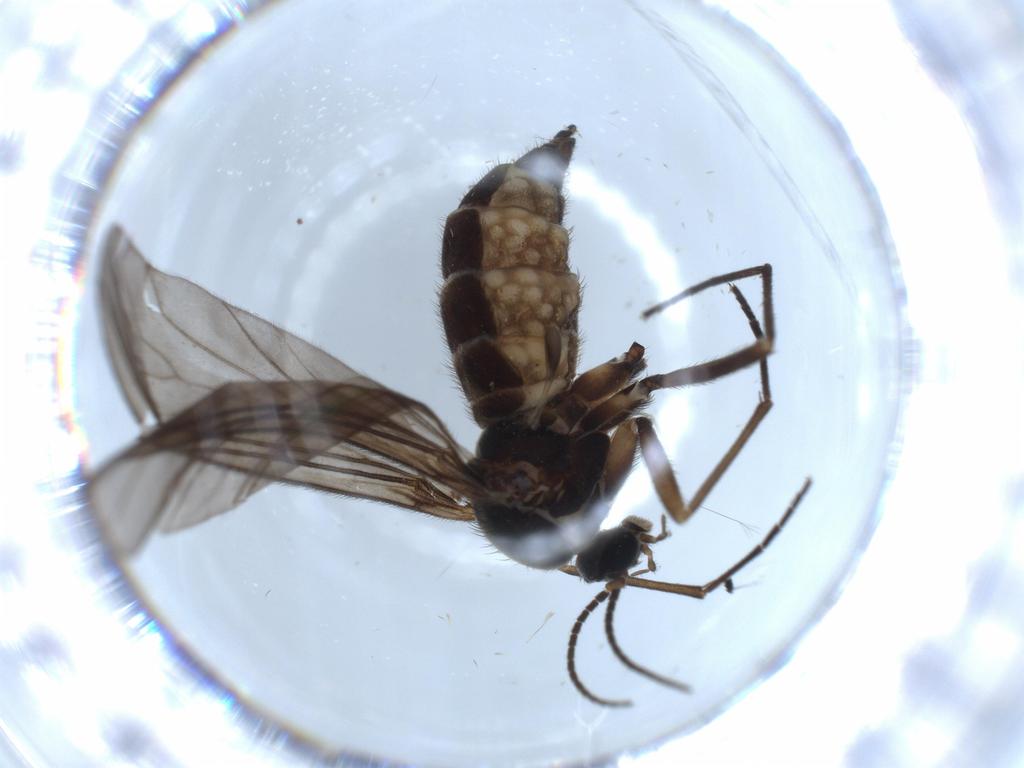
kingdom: Animalia
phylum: Arthropoda
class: Insecta
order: Diptera
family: Sciaridae
